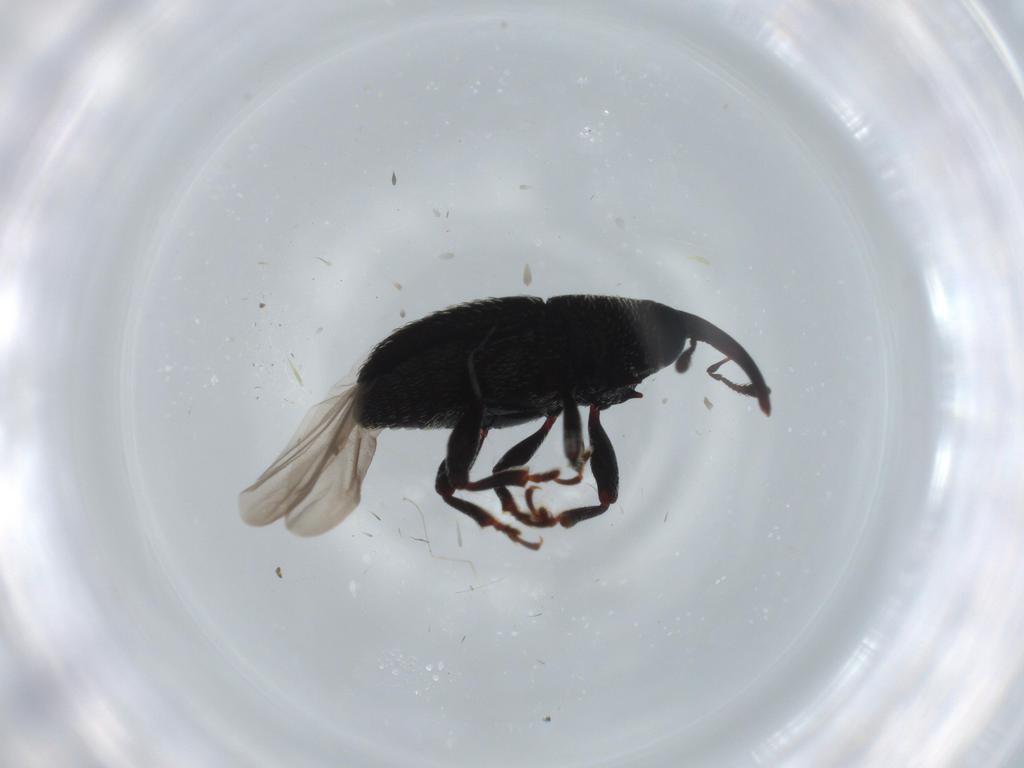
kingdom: Animalia
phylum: Arthropoda
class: Insecta
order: Coleoptera
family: Curculionidae
